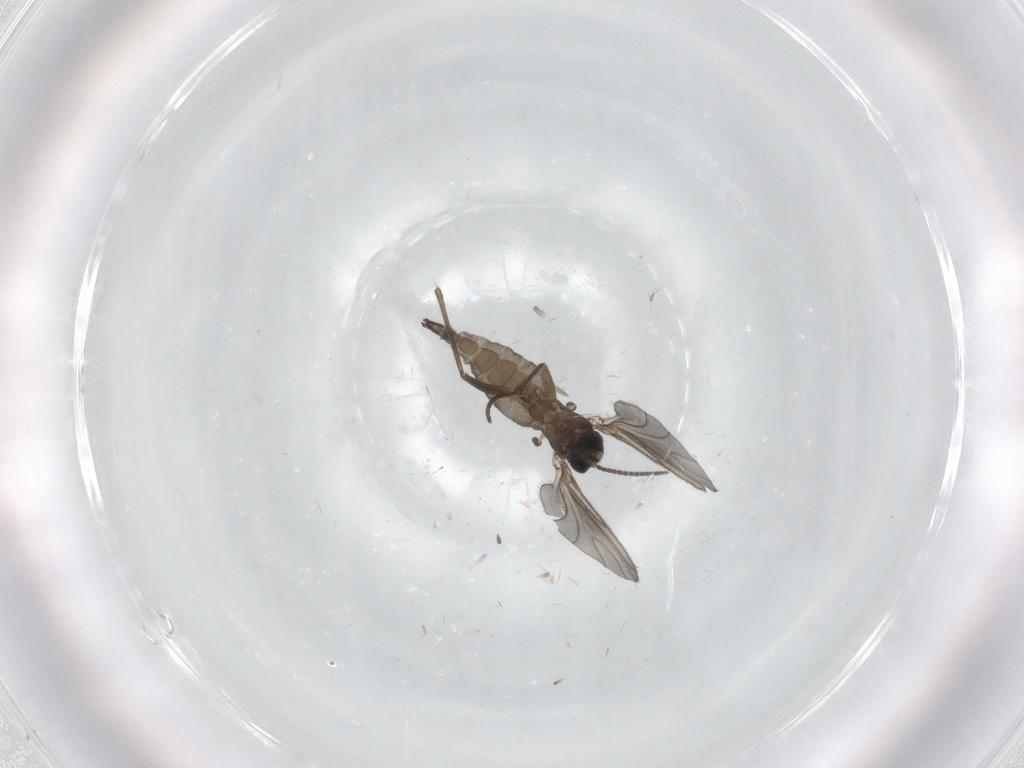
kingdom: Animalia
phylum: Arthropoda
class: Insecta
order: Diptera
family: Sciaridae
